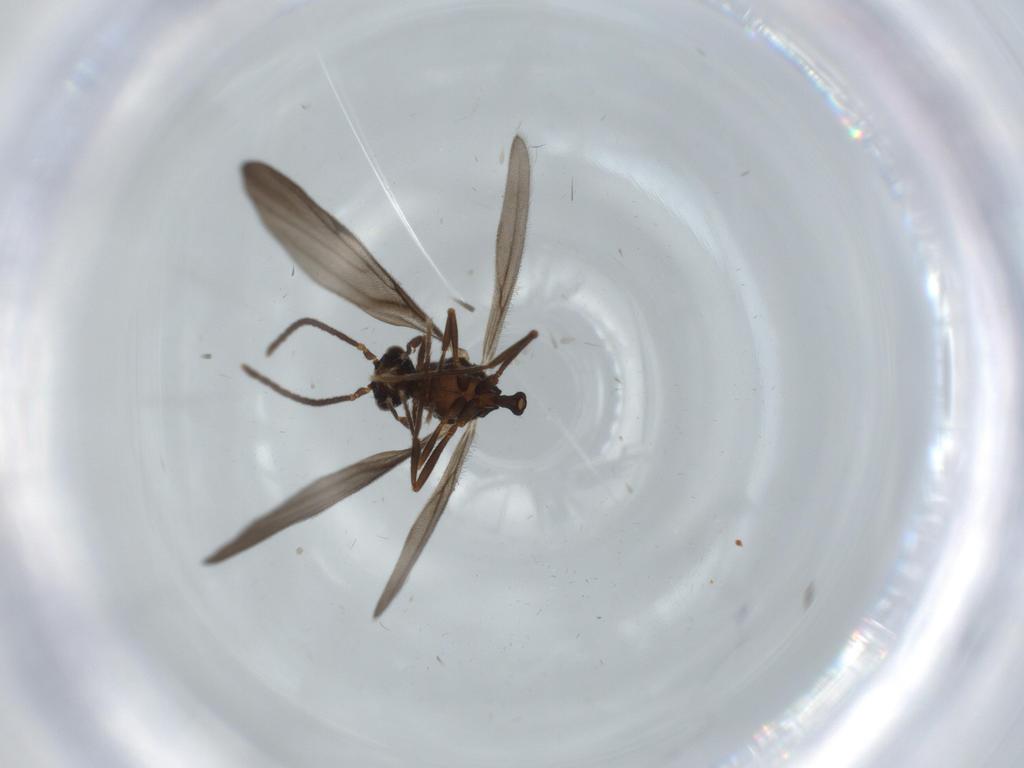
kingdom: Animalia
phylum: Arthropoda
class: Insecta
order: Hymenoptera
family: Formicidae
